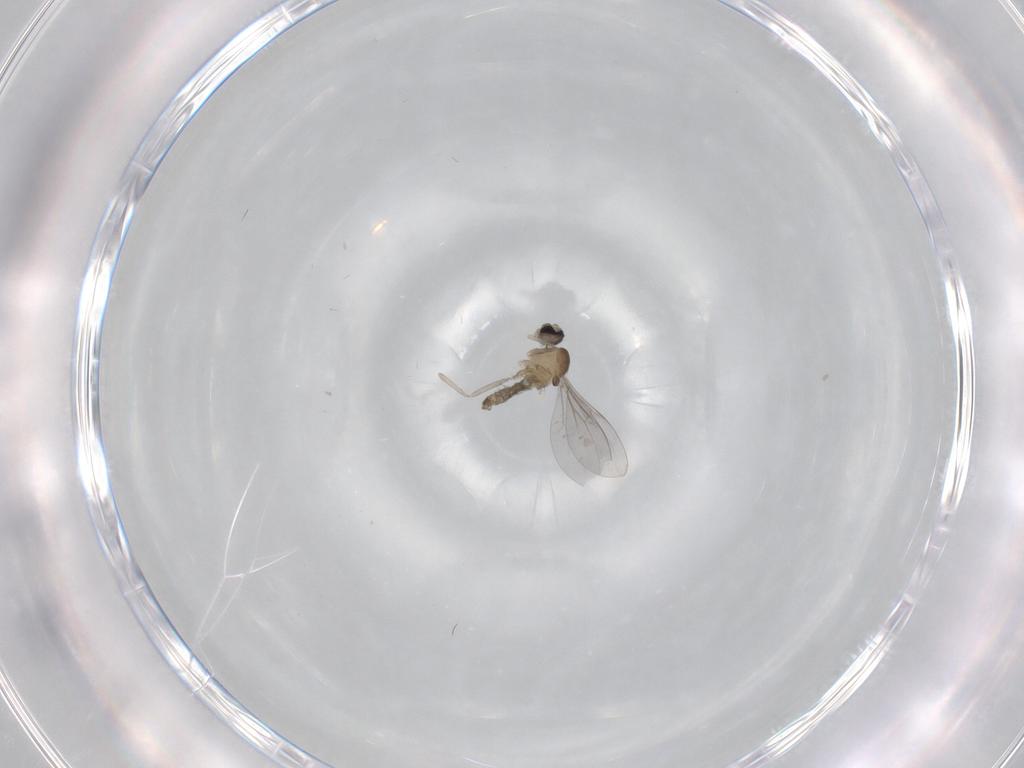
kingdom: Animalia
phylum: Arthropoda
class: Insecta
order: Diptera
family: Cecidomyiidae
